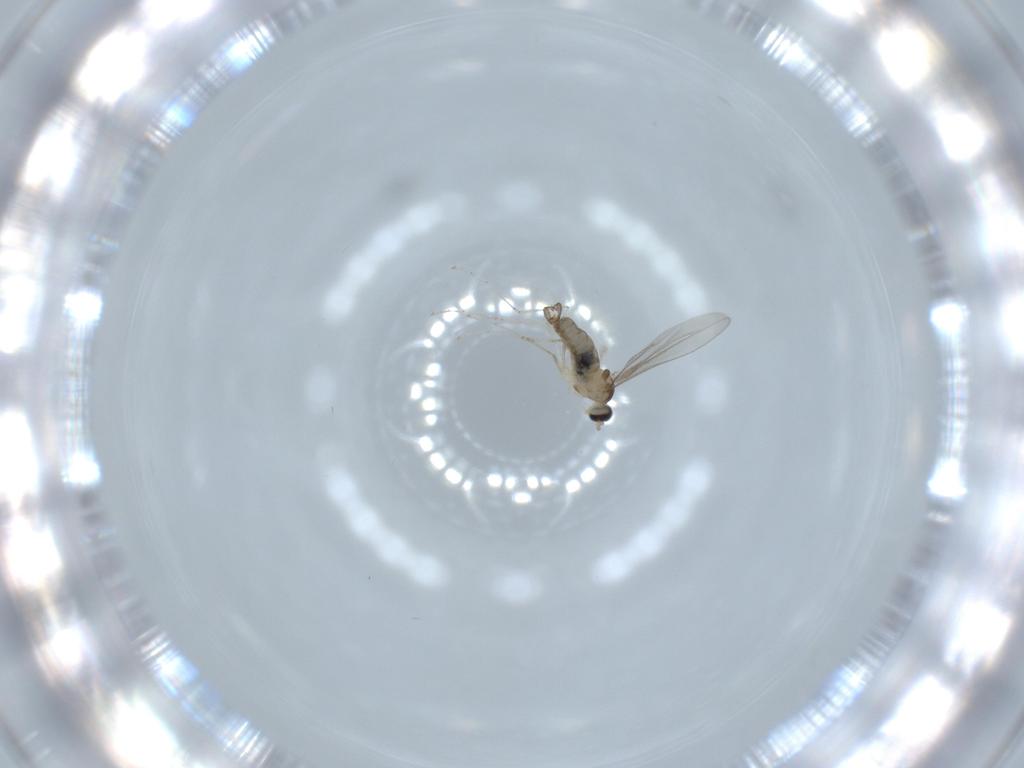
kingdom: Animalia
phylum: Arthropoda
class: Insecta
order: Diptera
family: Cecidomyiidae
